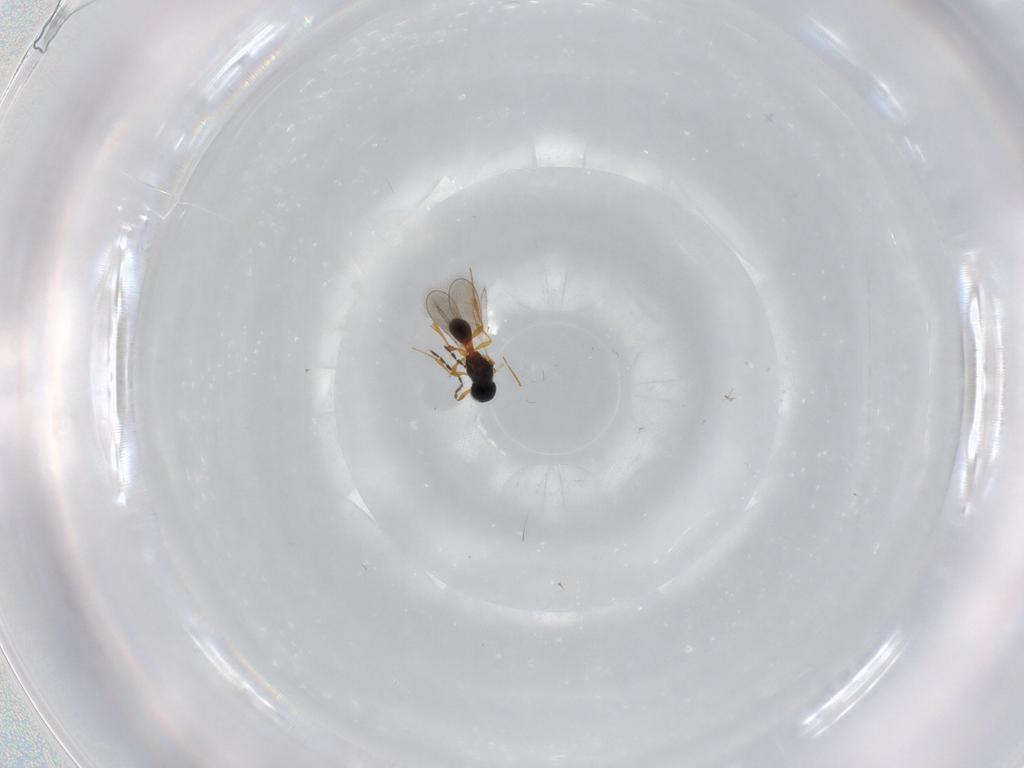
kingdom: Animalia
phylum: Arthropoda
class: Insecta
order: Hymenoptera
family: Platygastridae
